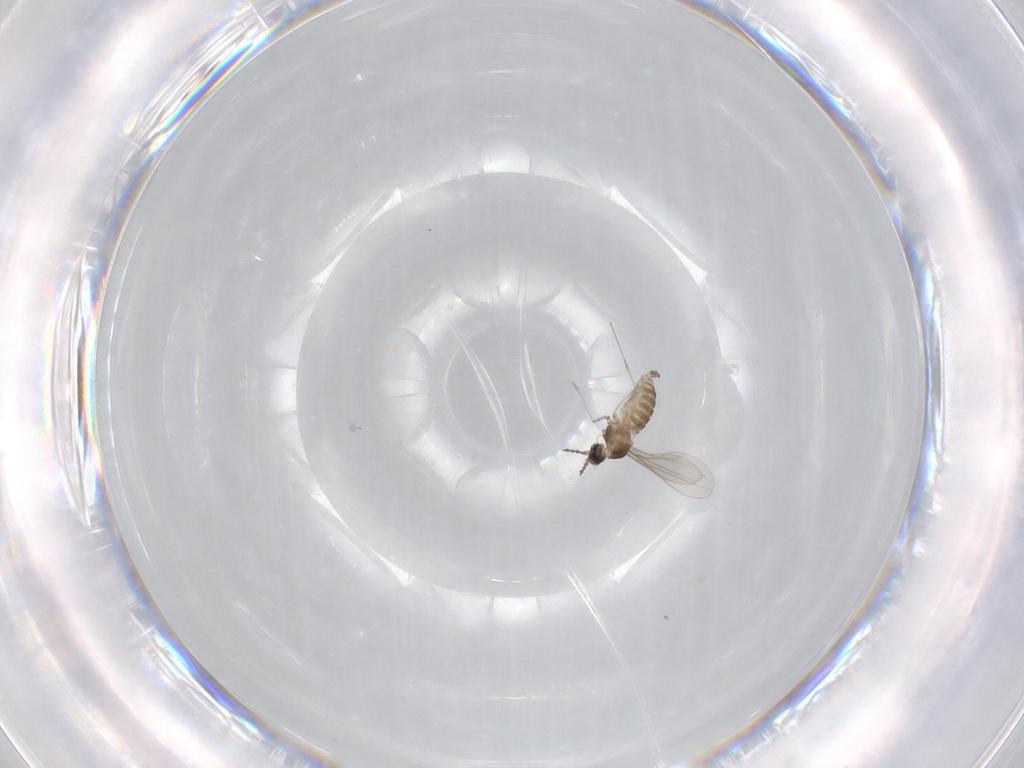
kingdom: Animalia
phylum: Arthropoda
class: Insecta
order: Diptera
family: Cecidomyiidae
